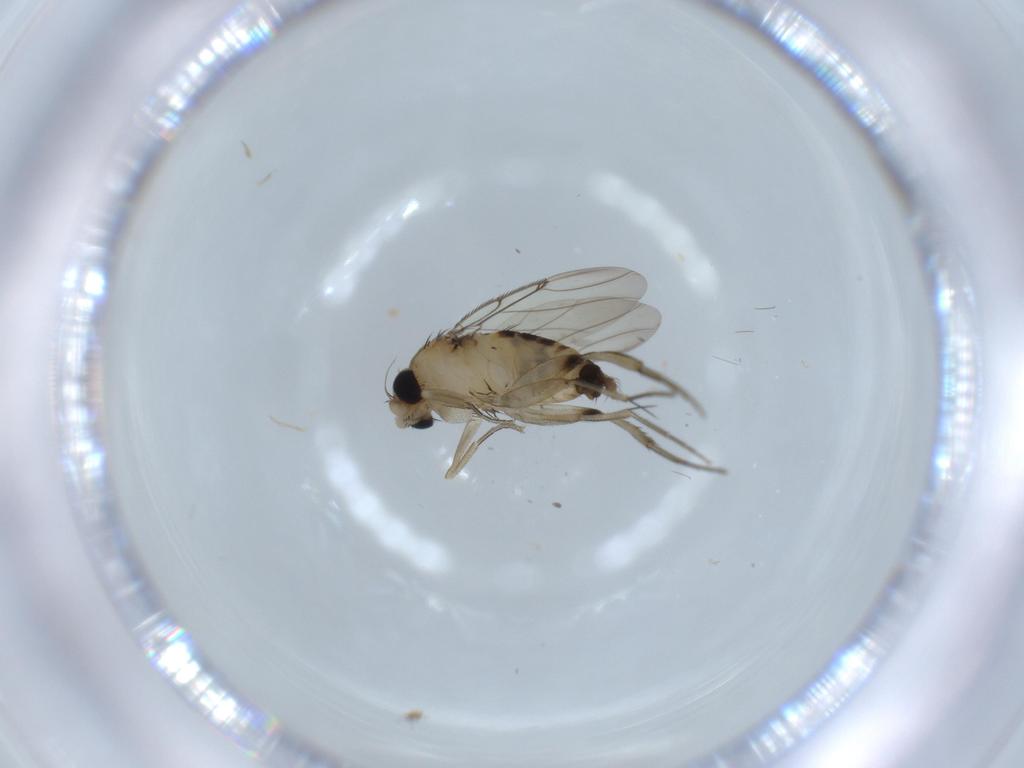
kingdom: Animalia
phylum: Arthropoda
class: Insecta
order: Diptera
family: Phoridae
